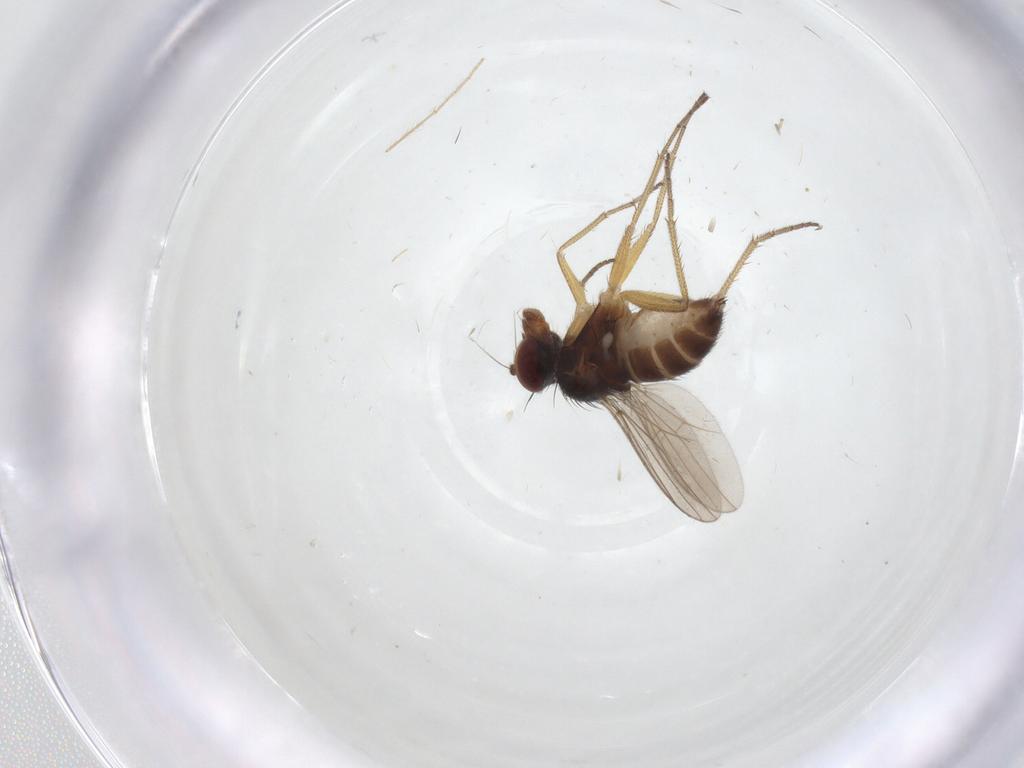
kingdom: Animalia
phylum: Arthropoda
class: Insecta
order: Diptera
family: Dolichopodidae
